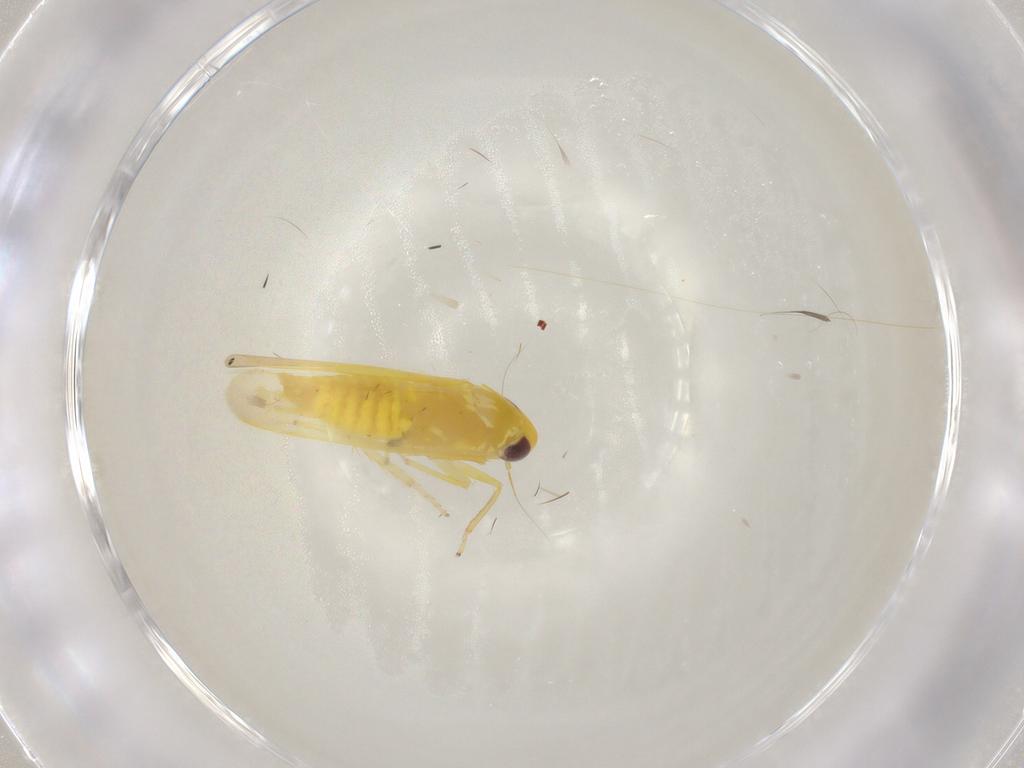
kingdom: Animalia
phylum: Arthropoda
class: Insecta
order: Hemiptera
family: Cicadellidae
